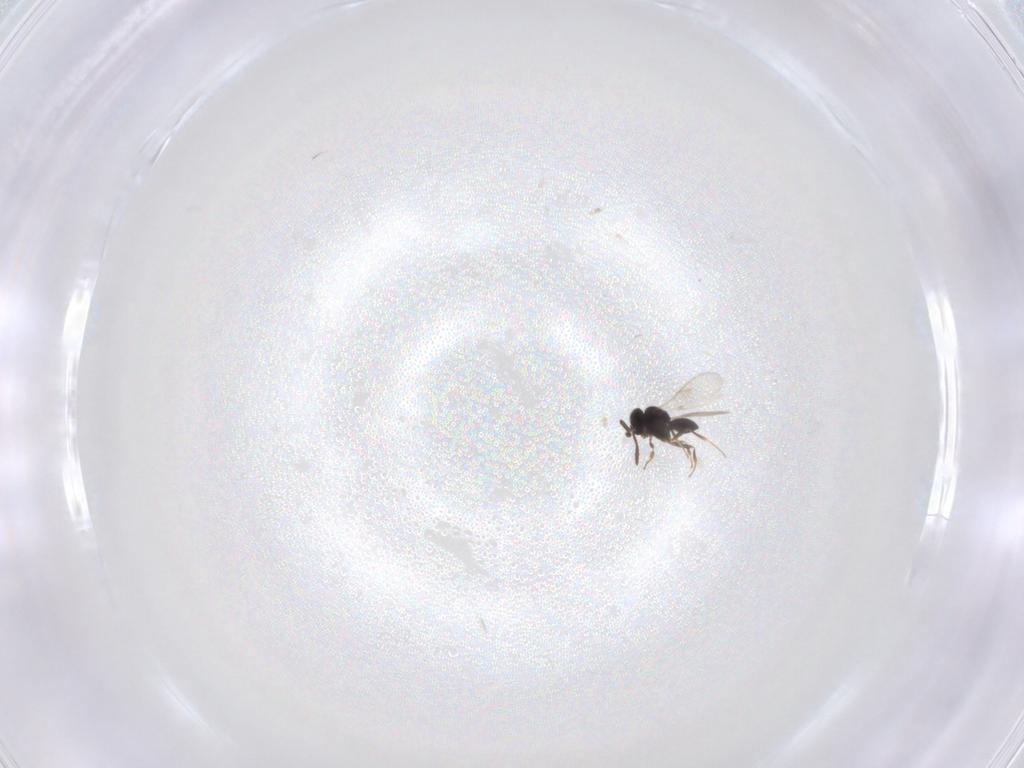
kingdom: Animalia
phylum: Arthropoda
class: Insecta
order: Hymenoptera
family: Scelionidae
